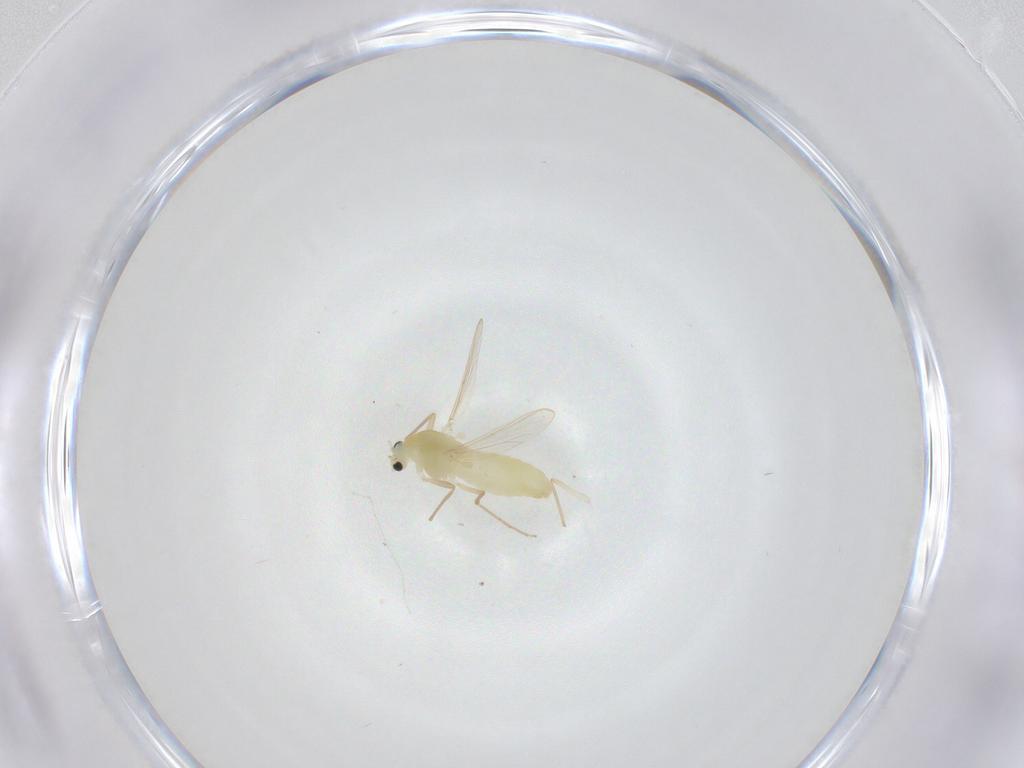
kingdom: Animalia
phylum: Arthropoda
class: Insecta
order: Diptera
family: Chironomidae
